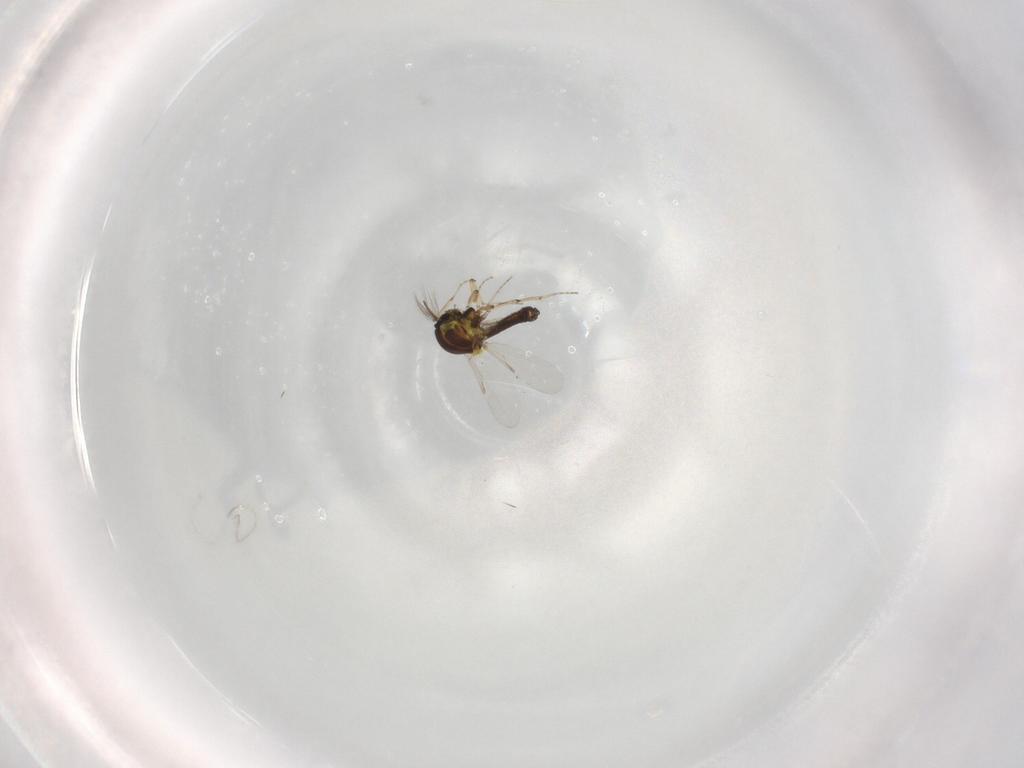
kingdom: Animalia
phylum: Arthropoda
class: Insecta
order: Diptera
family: Ceratopogonidae
